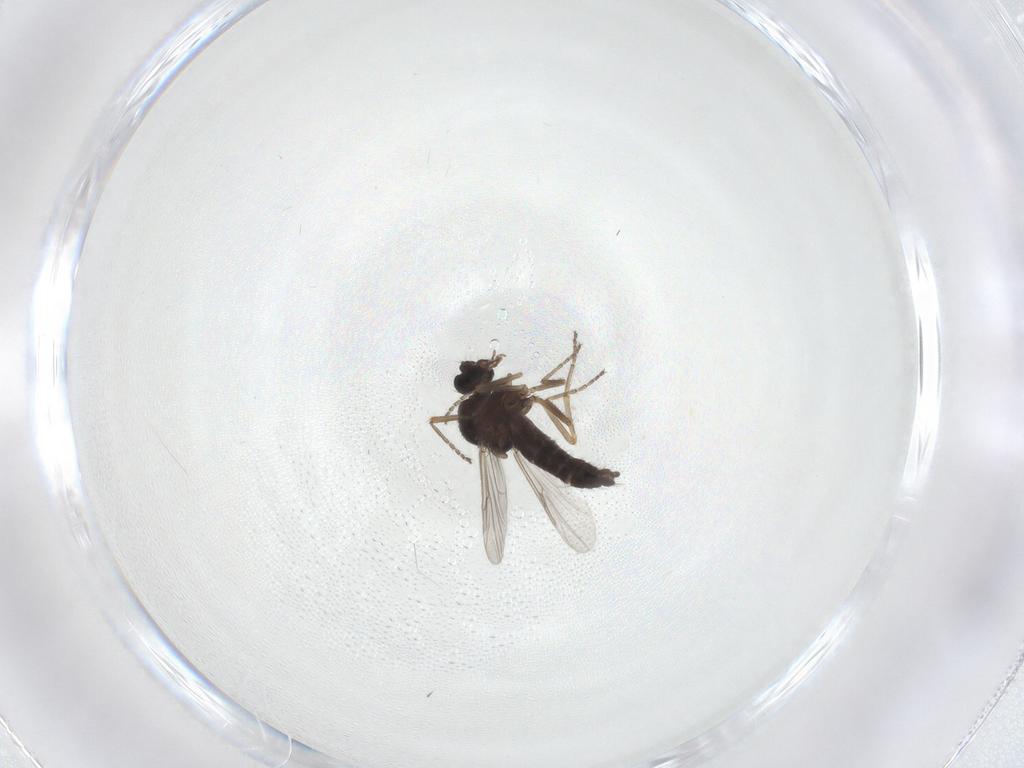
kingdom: Animalia
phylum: Arthropoda
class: Insecta
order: Diptera
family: Ceratopogonidae
